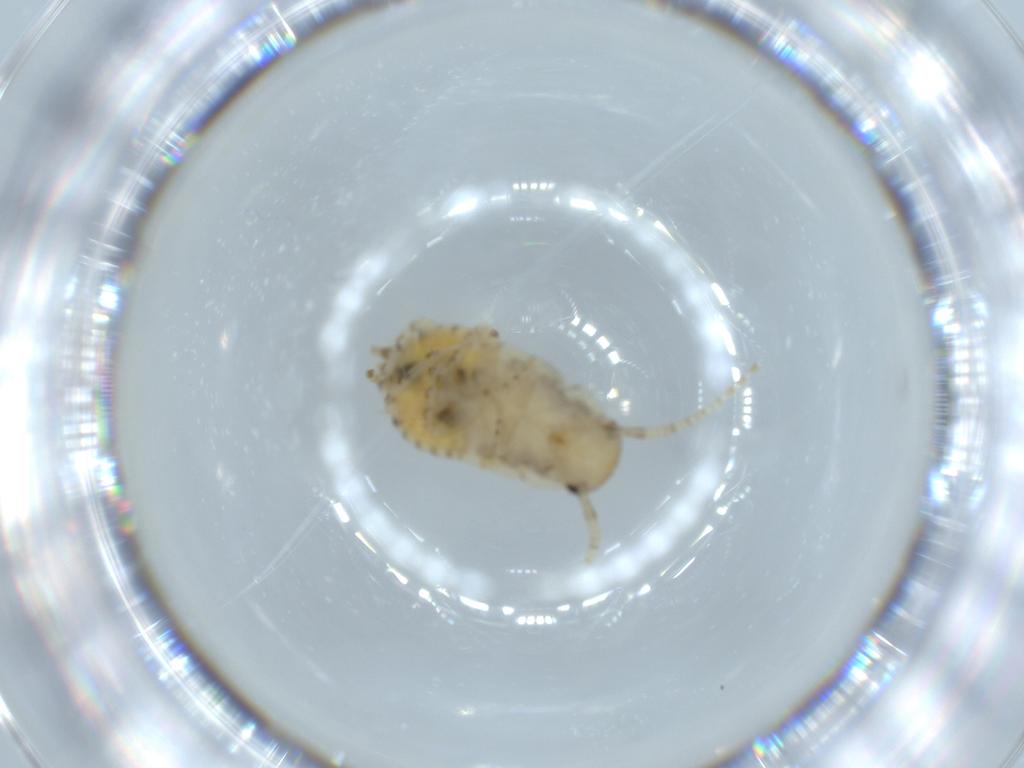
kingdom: Animalia
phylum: Arthropoda
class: Insecta
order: Blattodea
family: Ectobiidae
